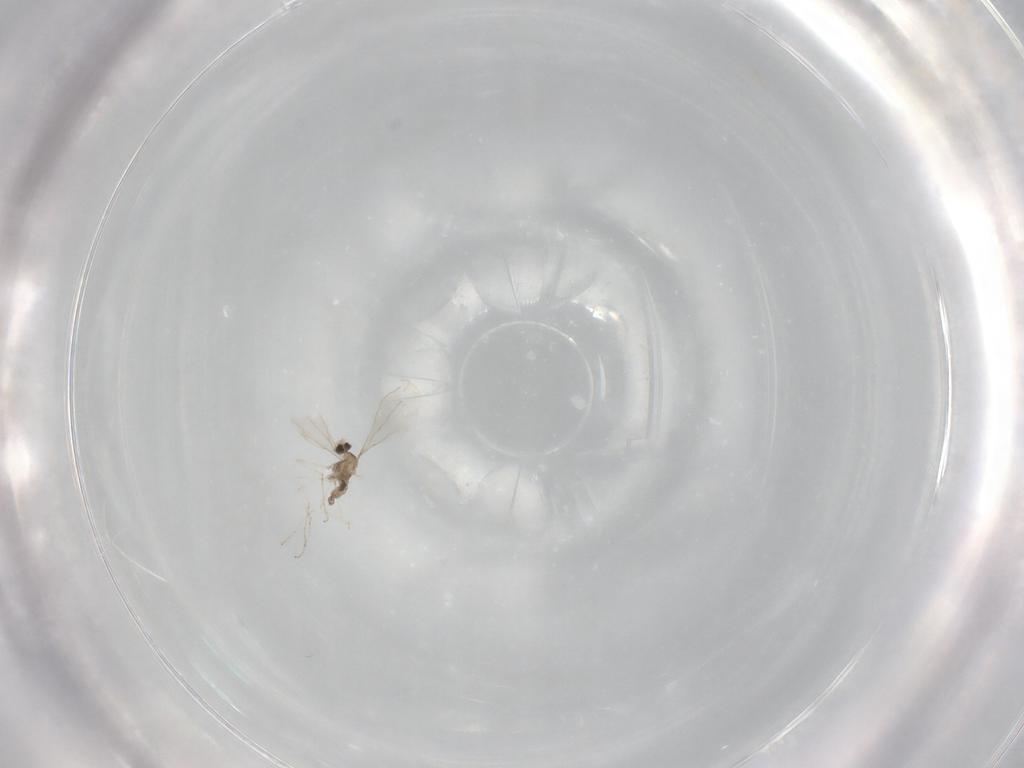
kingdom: Animalia
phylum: Arthropoda
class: Insecta
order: Diptera
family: Cecidomyiidae
